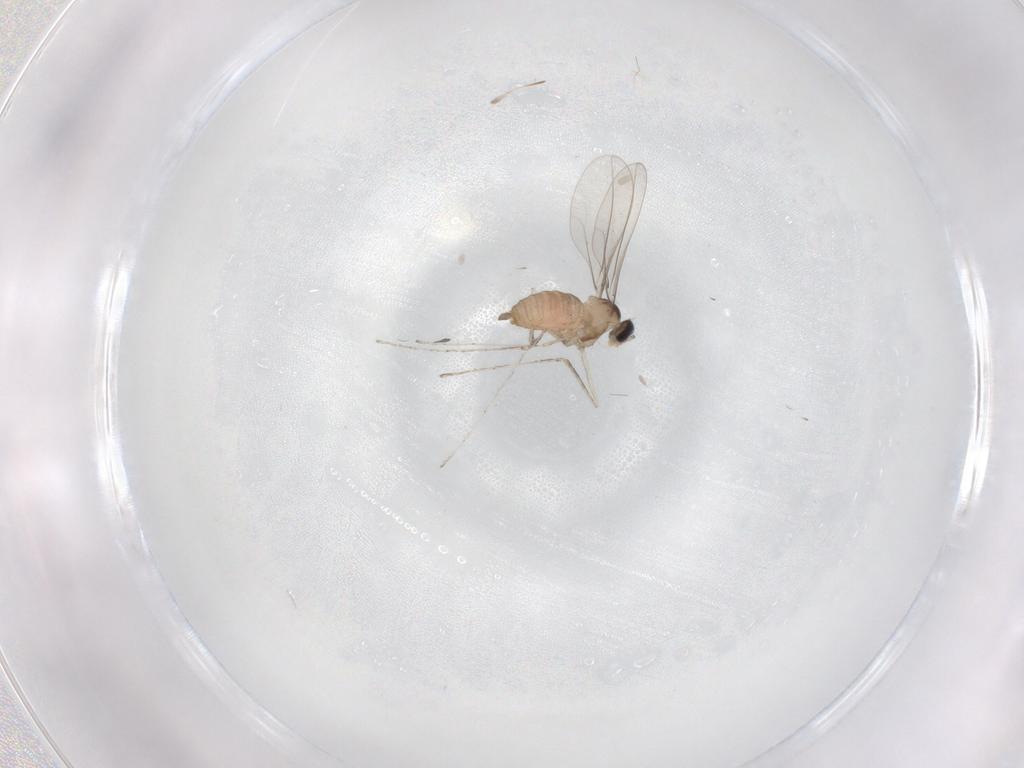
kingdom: Animalia
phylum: Arthropoda
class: Insecta
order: Diptera
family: Cecidomyiidae
